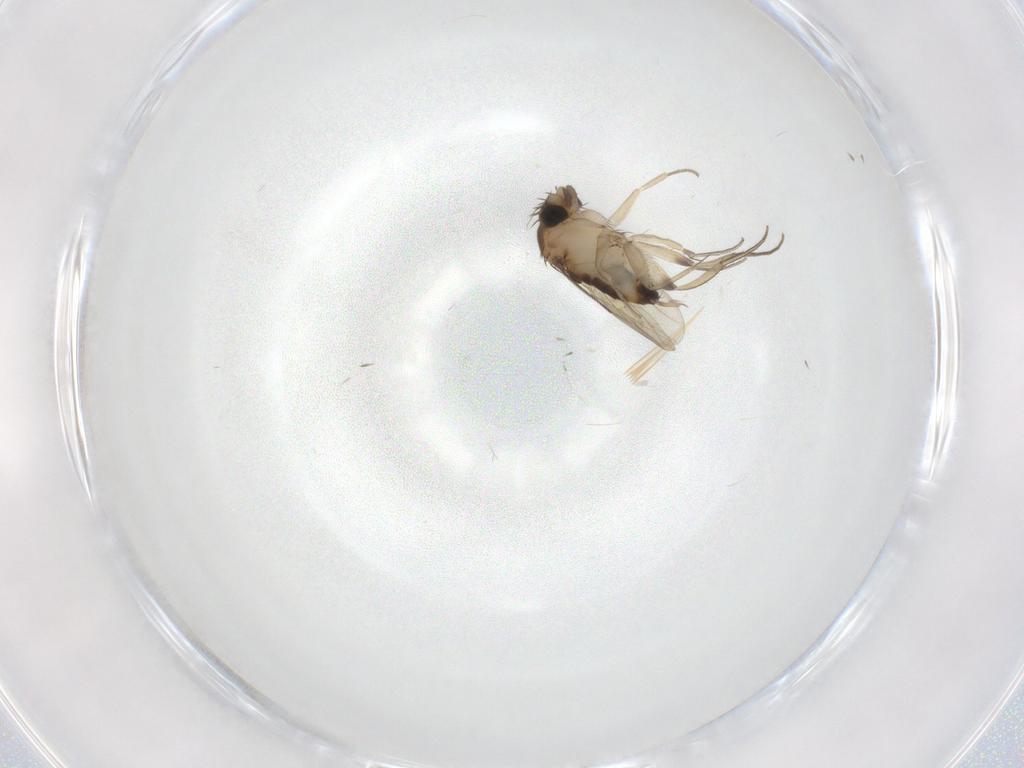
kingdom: Animalia
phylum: Arthropoda
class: Insecta
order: Diptera
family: Phoridae
